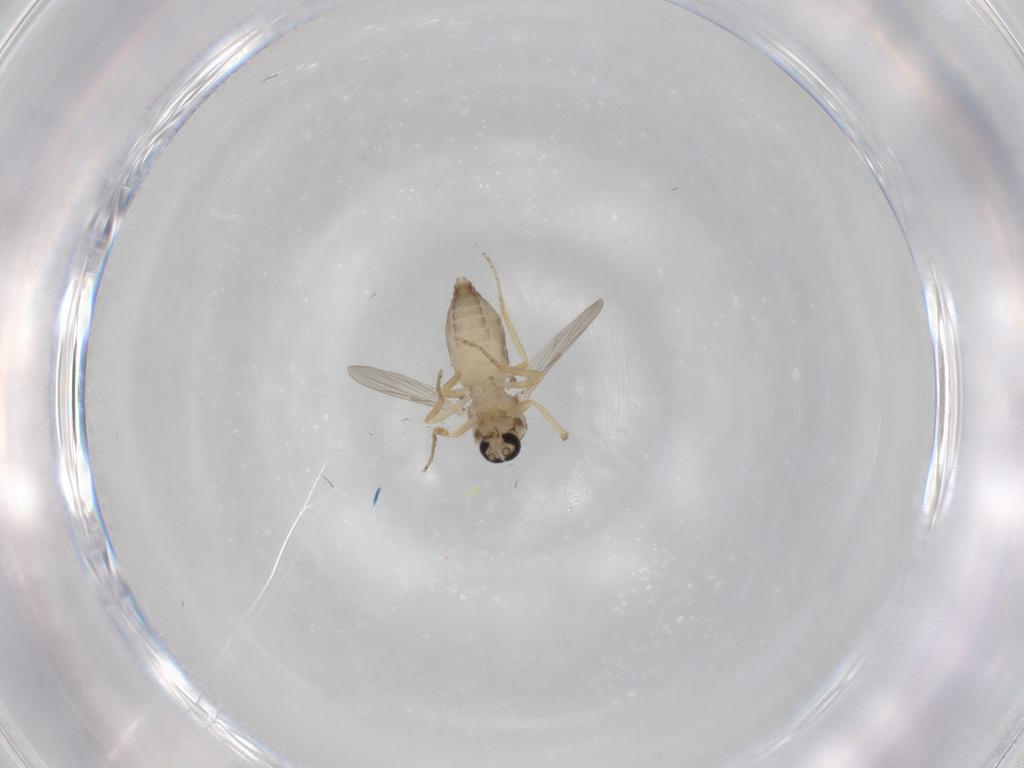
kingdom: Animalia
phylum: Arthropoda
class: Insecta
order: Diptera
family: Ceratopogonidae
